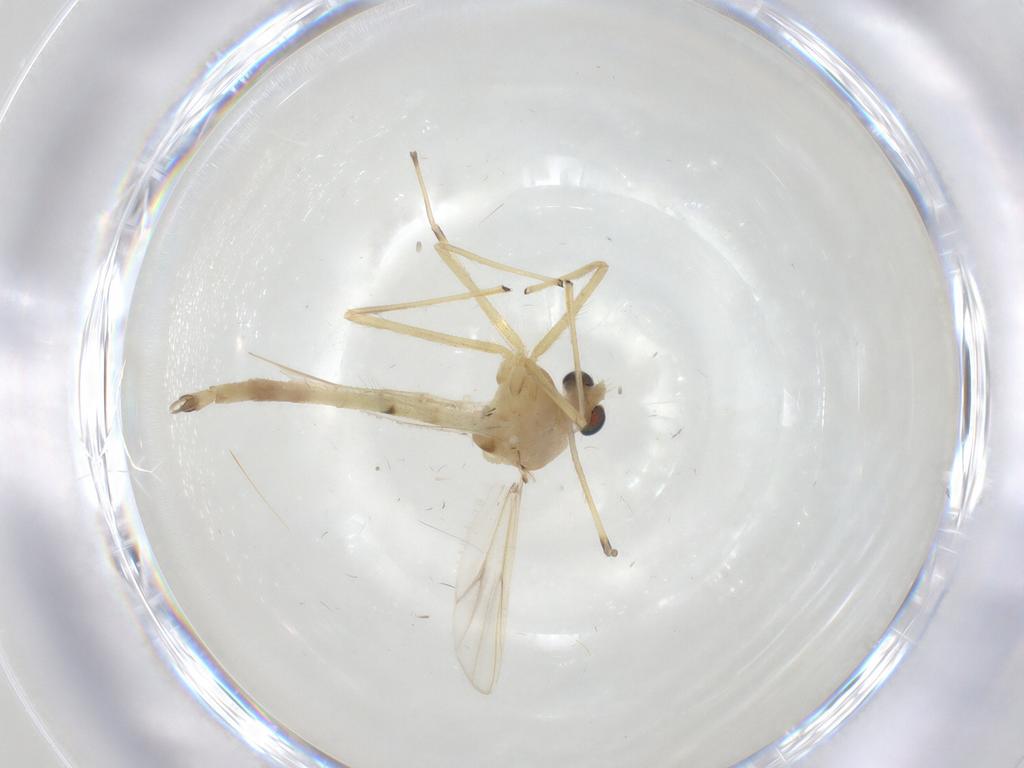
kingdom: Animalia
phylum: Arthropoda
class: Insecta
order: Diptera
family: Chironomidae
